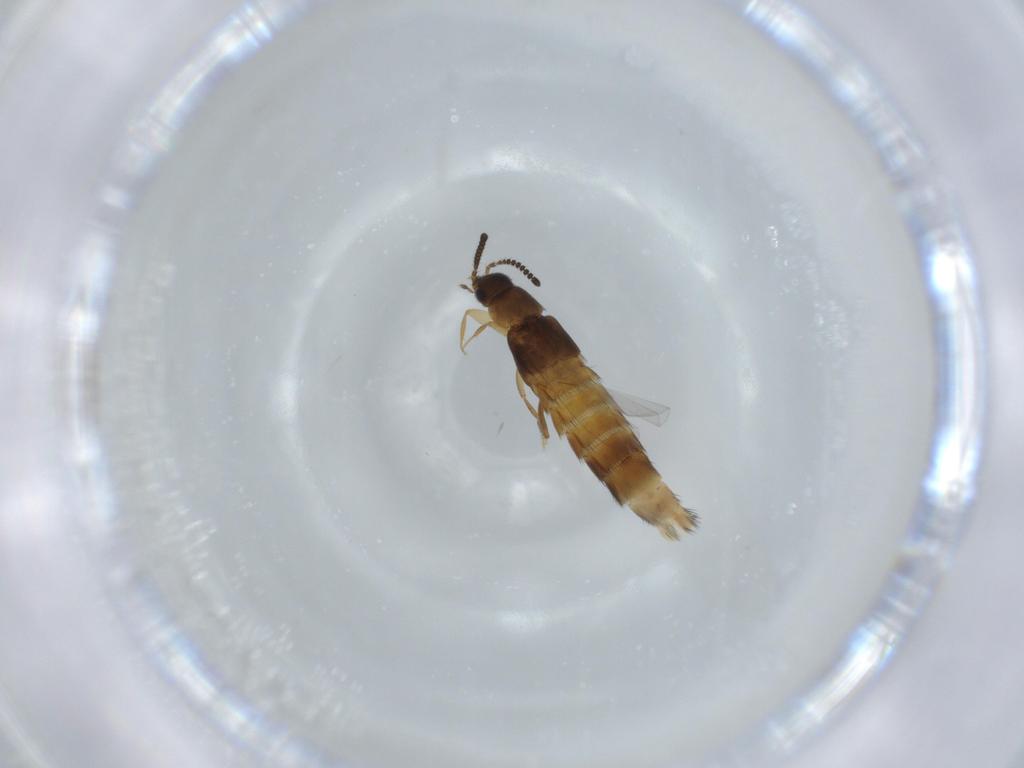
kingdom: Animalia
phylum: Arthropoda
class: Insecta
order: Coleoptera
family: Staphylinidae
